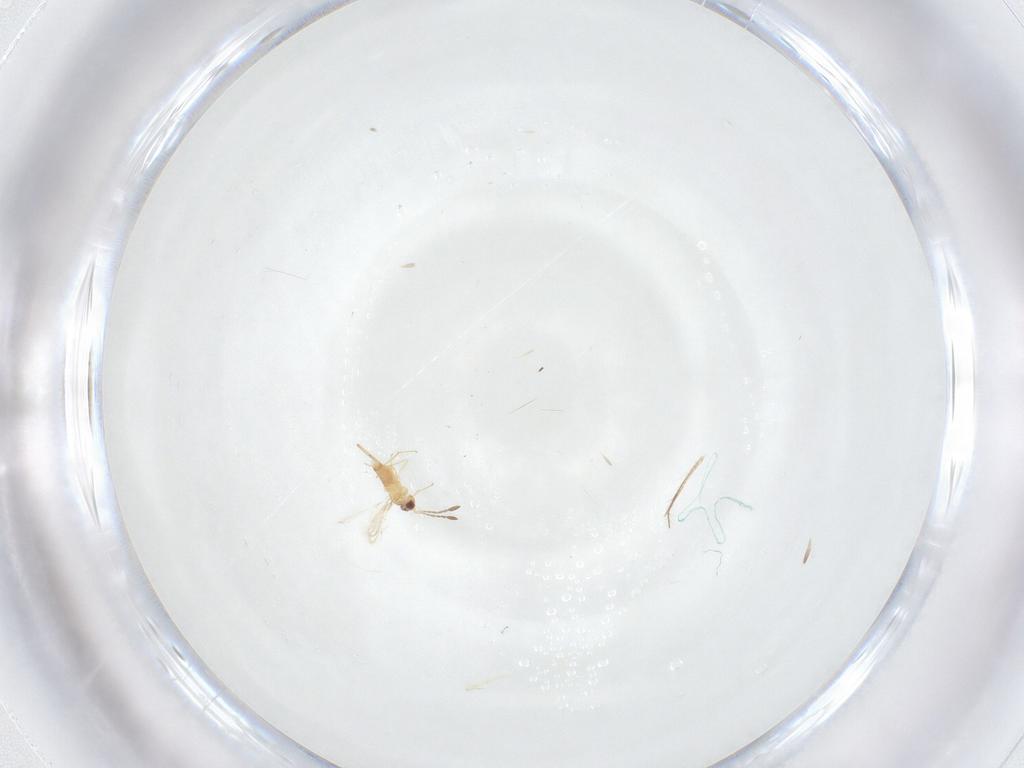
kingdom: Animalia
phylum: Arthropoda
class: Insecta
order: Hymenoptera
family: Mymaridae
